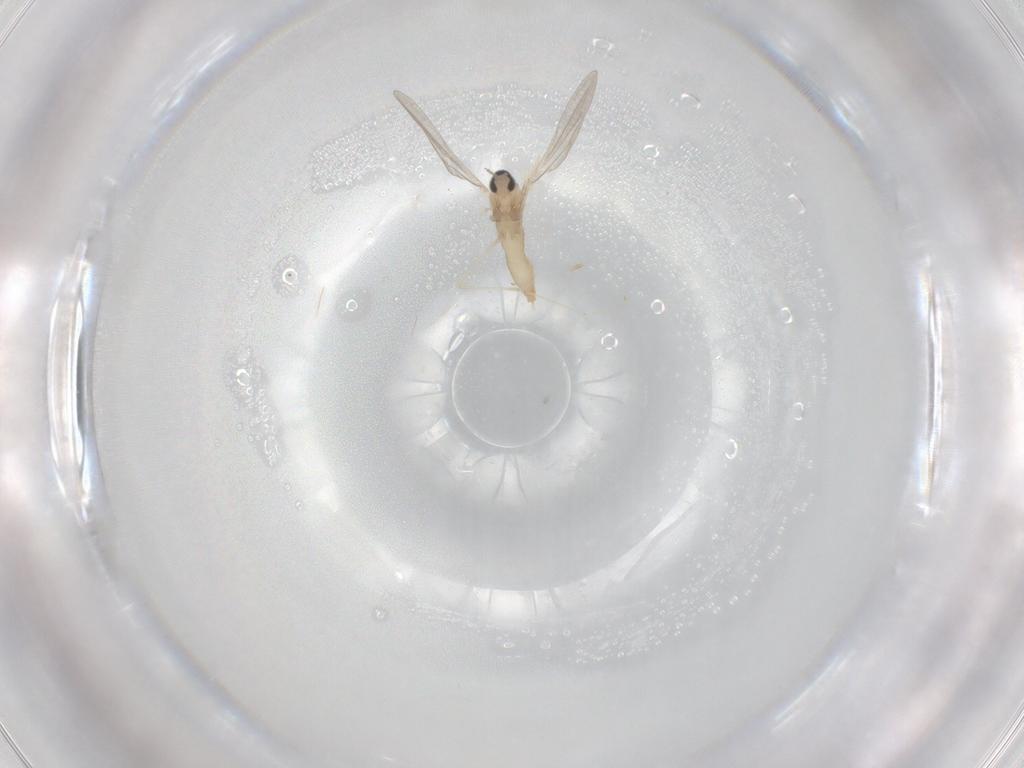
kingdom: Animalia
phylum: Arthropoda
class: Insecta
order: Diptera
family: Cecidomyiidae
